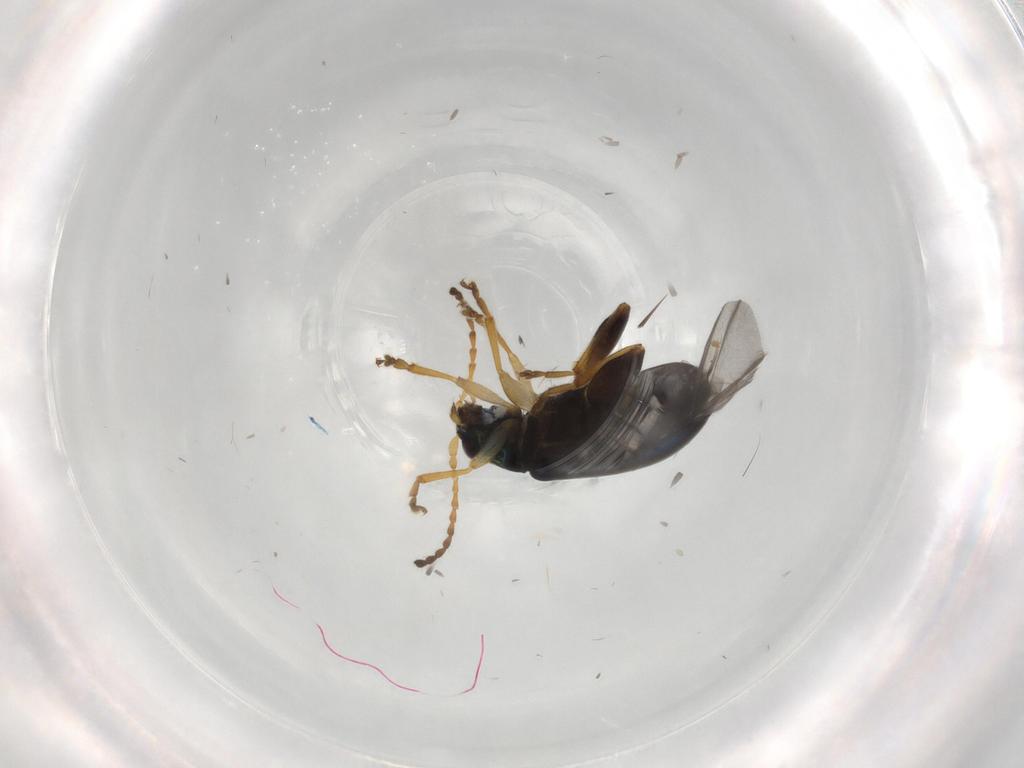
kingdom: Animalia
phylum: Arthropoda
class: Insecta
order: Coleoptera
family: Chrysomelidae
